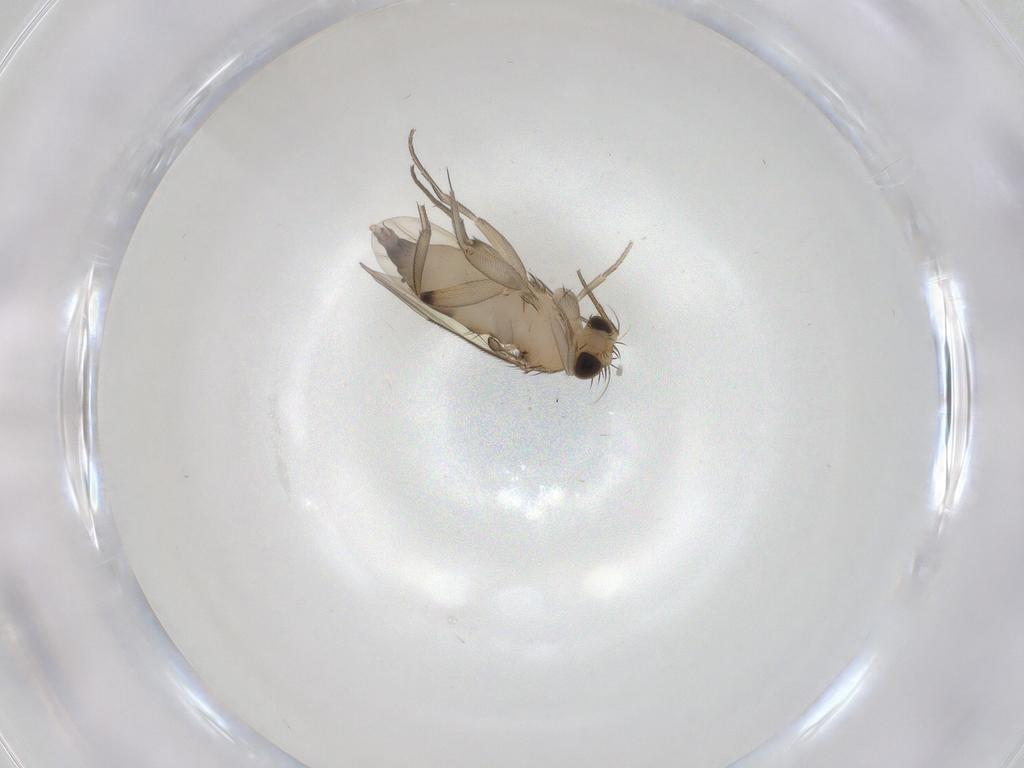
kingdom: Animalia
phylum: Arthropoda
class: Insecta
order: Diptera
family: Phoridae
